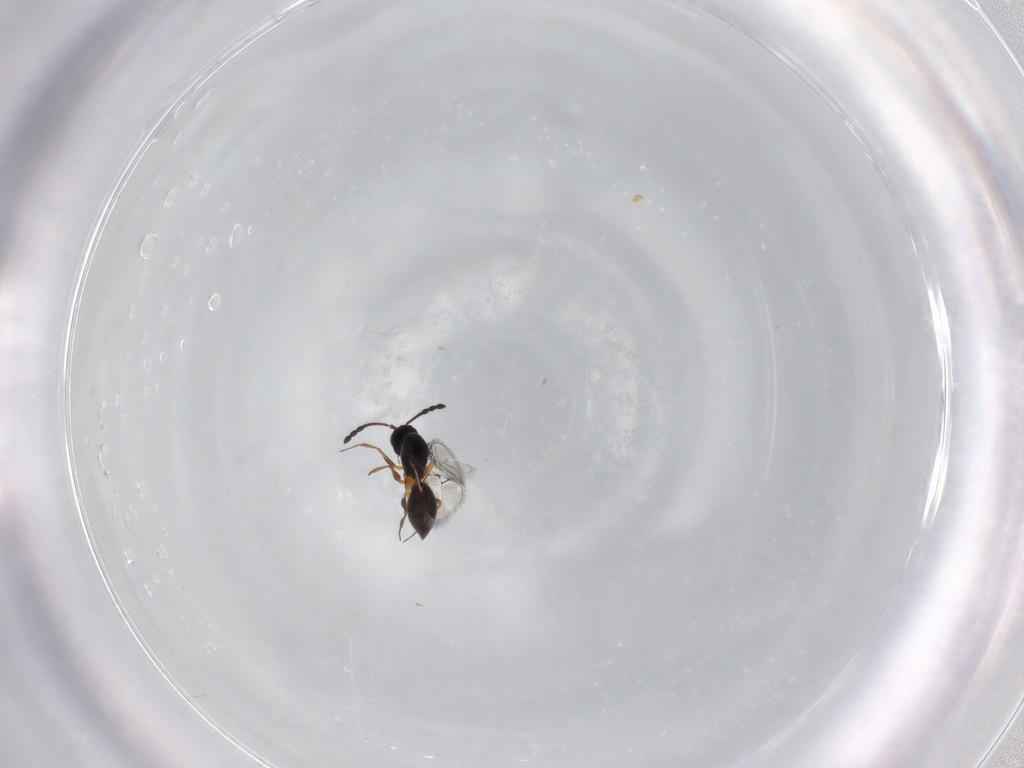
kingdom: Animalia
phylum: Arthropoda
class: Insecta
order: Hymenoptera
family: Figitidae
